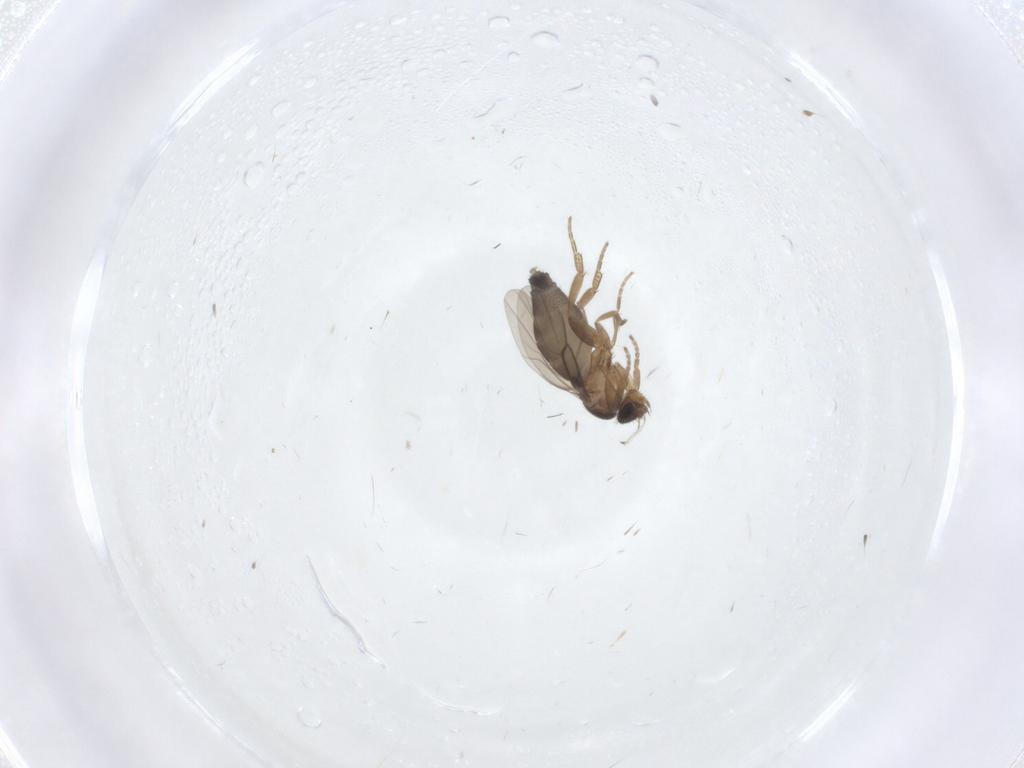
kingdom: Animalia
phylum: Arthropoda
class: Insecta
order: Diptera
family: Phoridae
